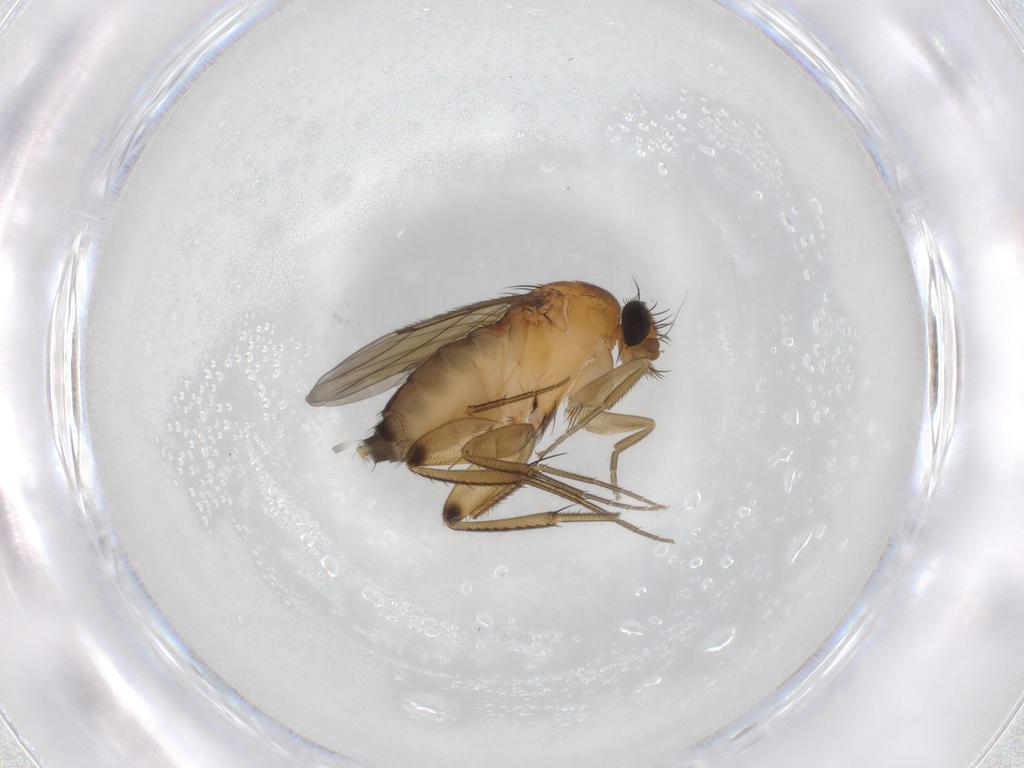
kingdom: Animalia
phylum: Arthropoda
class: Insecta
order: Diptera
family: Phoridae
